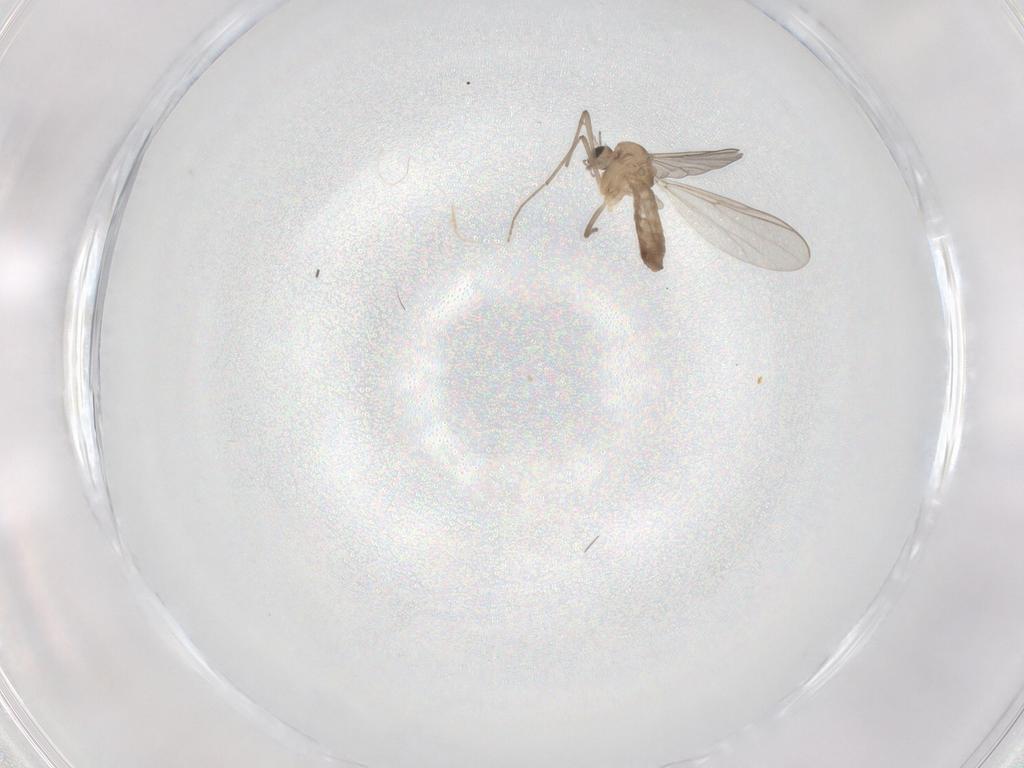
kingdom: Animalia
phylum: Arthropoda
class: Insecta
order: Diptera
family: Chironomidae
